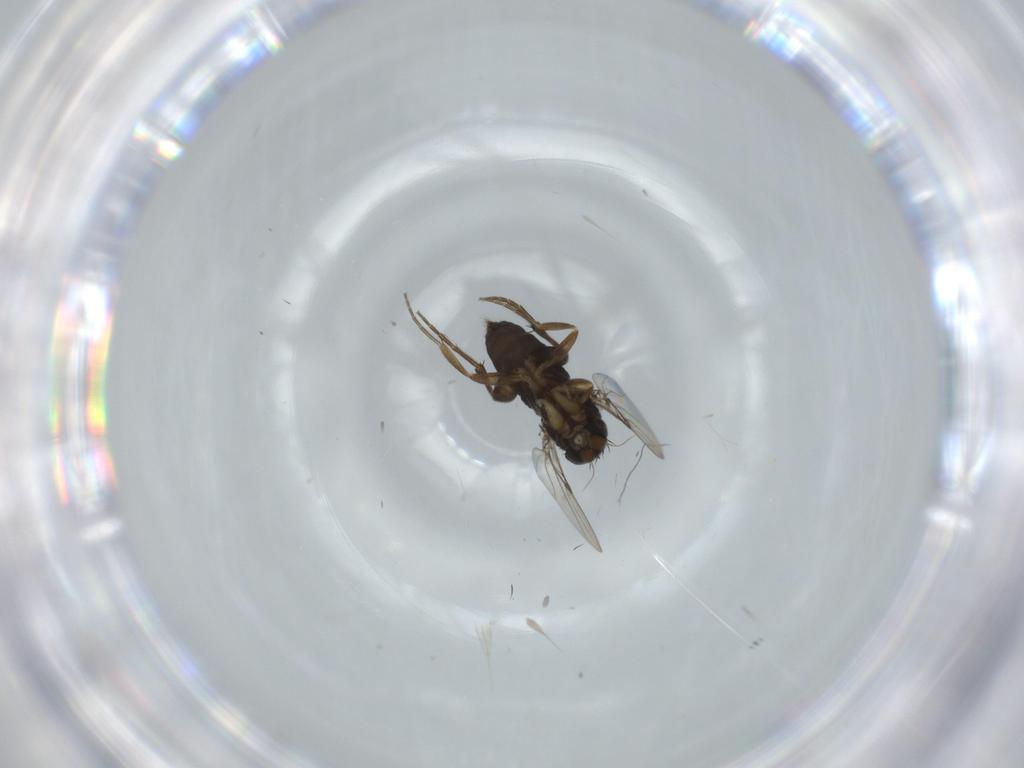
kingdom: Animalia
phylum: Arthropoda
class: Insecta
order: Diptera
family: Phoridae
